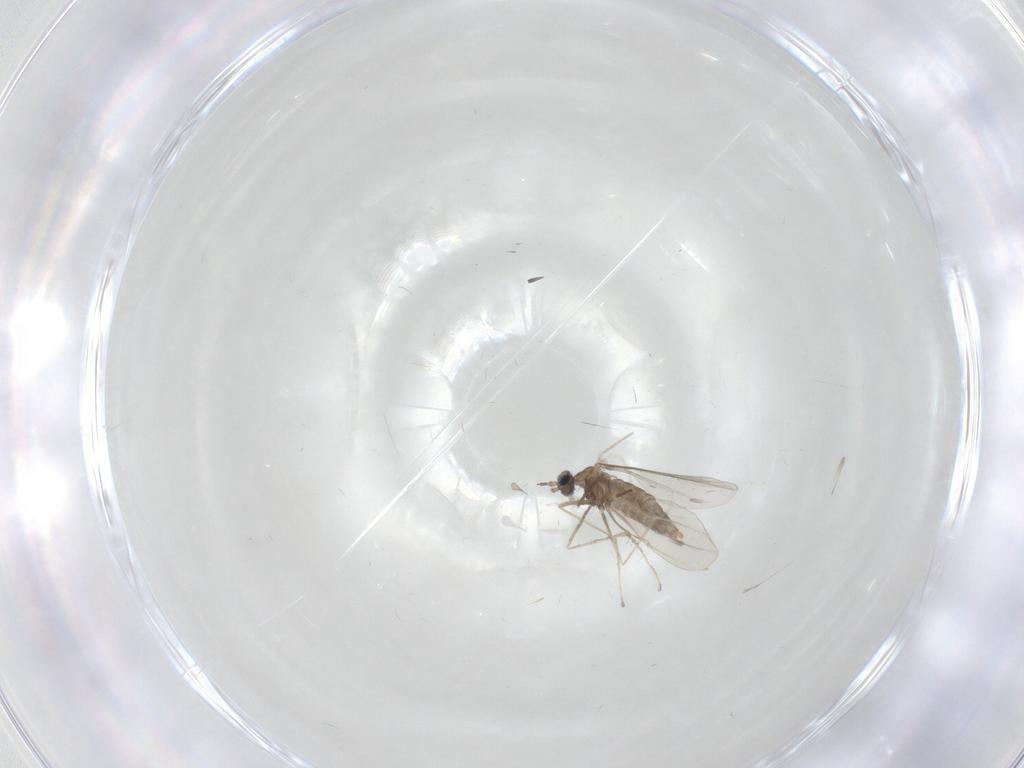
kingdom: Animalia
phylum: Arthropoda
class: Insecta
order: Diptera
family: Cecidomyiidae
